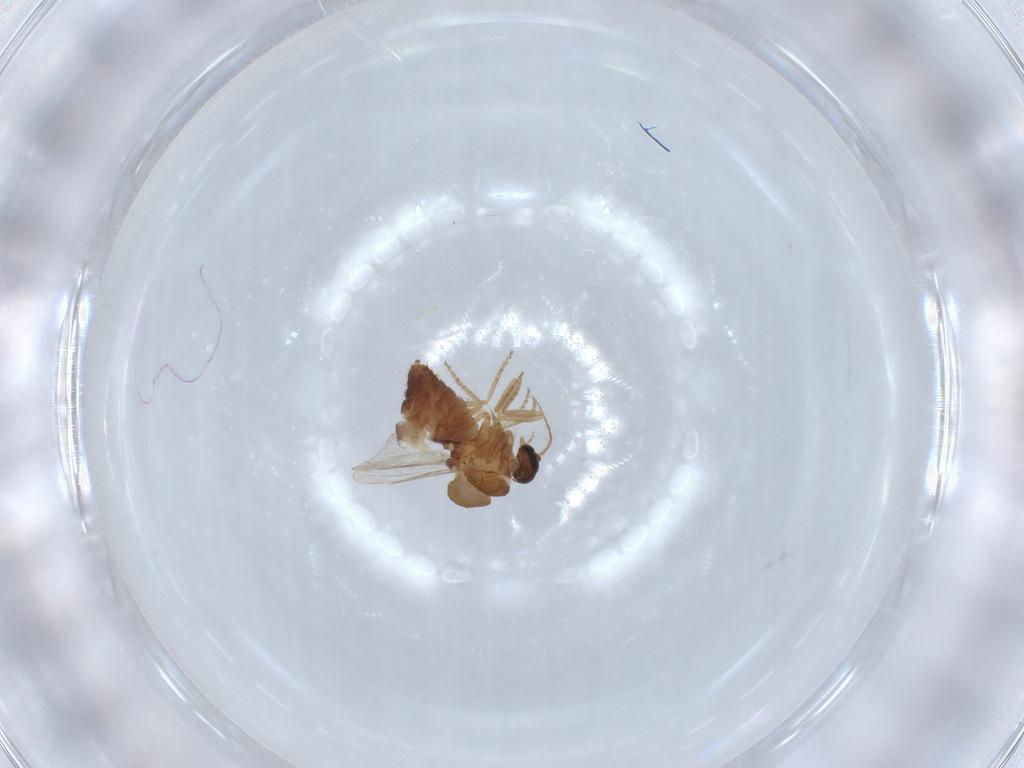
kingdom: Animalia
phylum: Arthropoda
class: Insecta
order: Diptera
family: Ceratopogonidae
